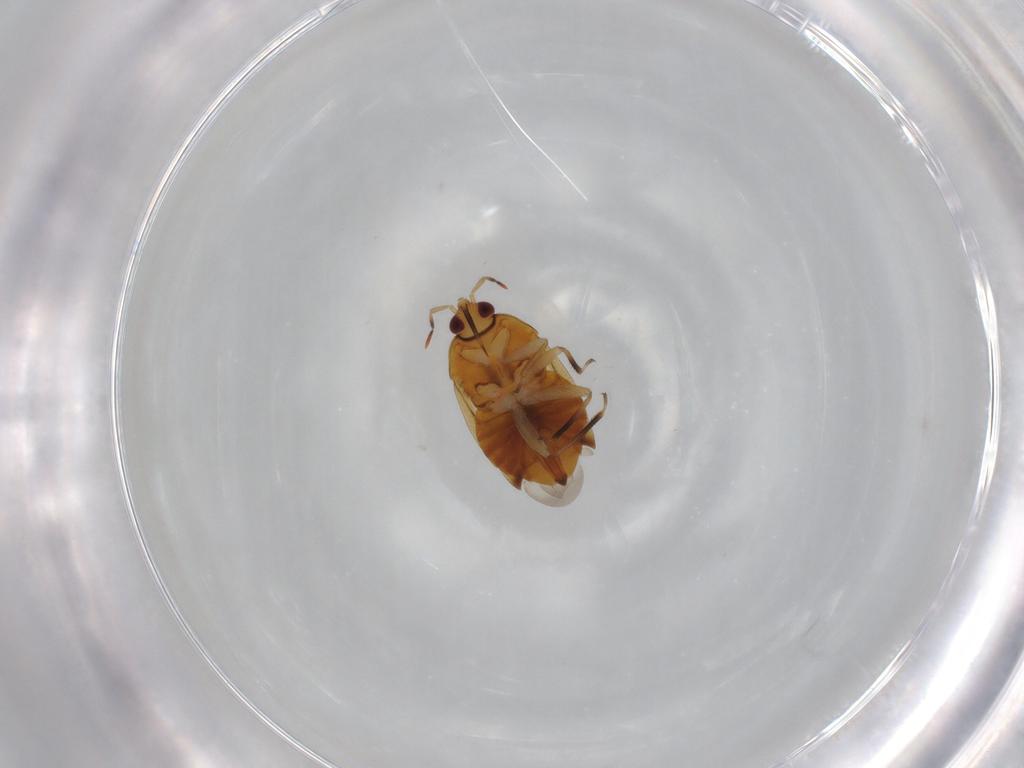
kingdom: Animalia
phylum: Arthropoda
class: Insecta
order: Hemiptera
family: Anthocoridae
